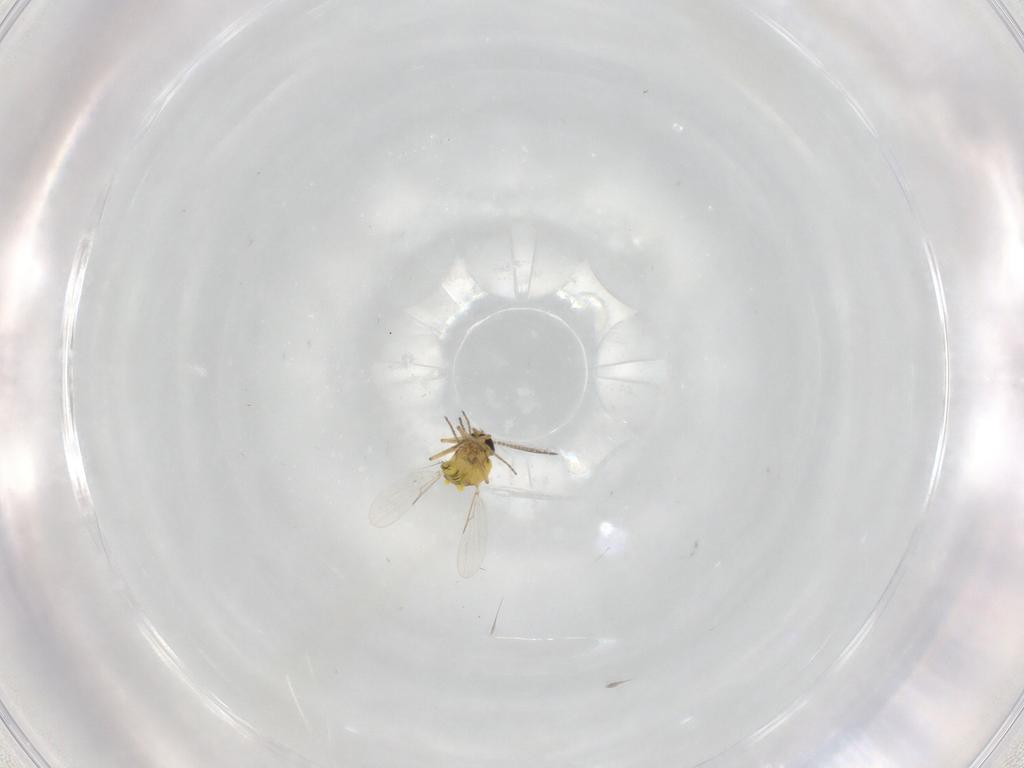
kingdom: Animalia
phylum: Arthropoda
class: Insecta
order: Diptera
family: Ceratopogonidae
